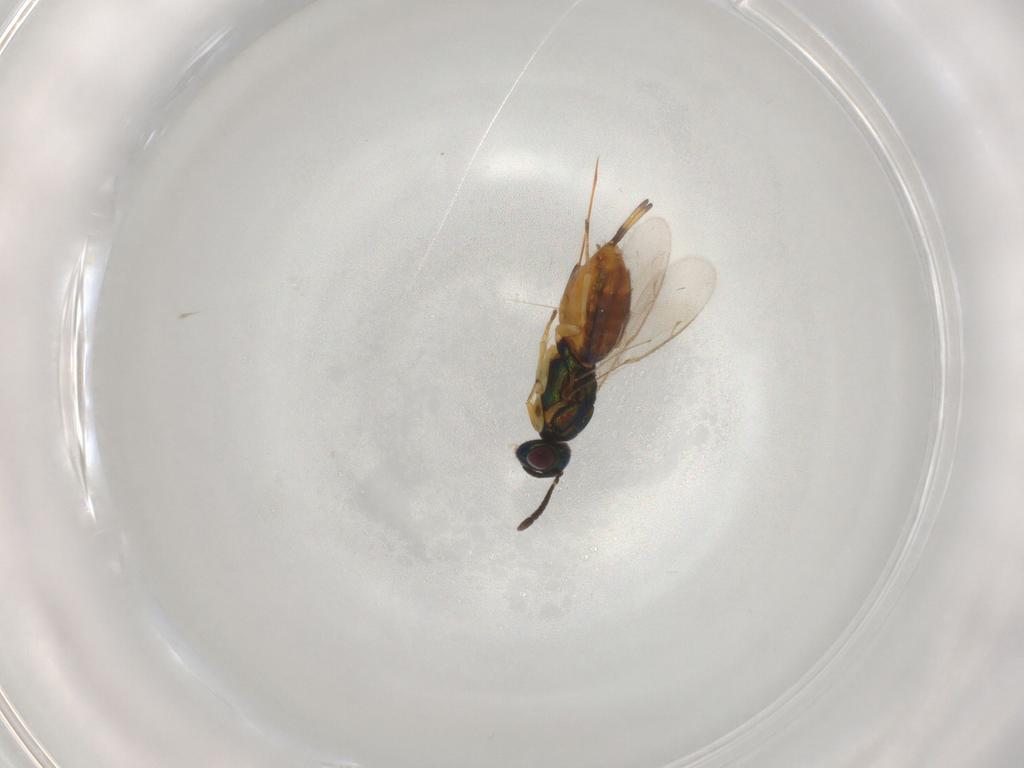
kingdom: Animalia
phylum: Arthropoda
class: Insecta
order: Hymenoptera
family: Eupelmidae
